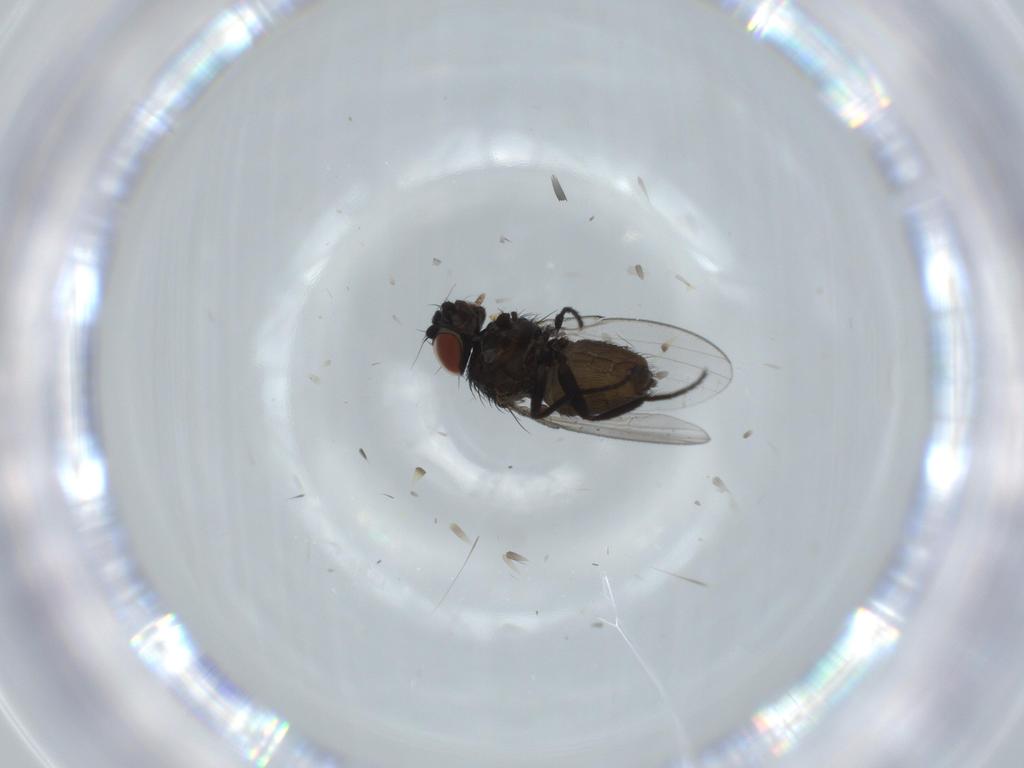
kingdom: Animalia
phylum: Arthropoda
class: Insecta
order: Diptera
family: Milichiidae
